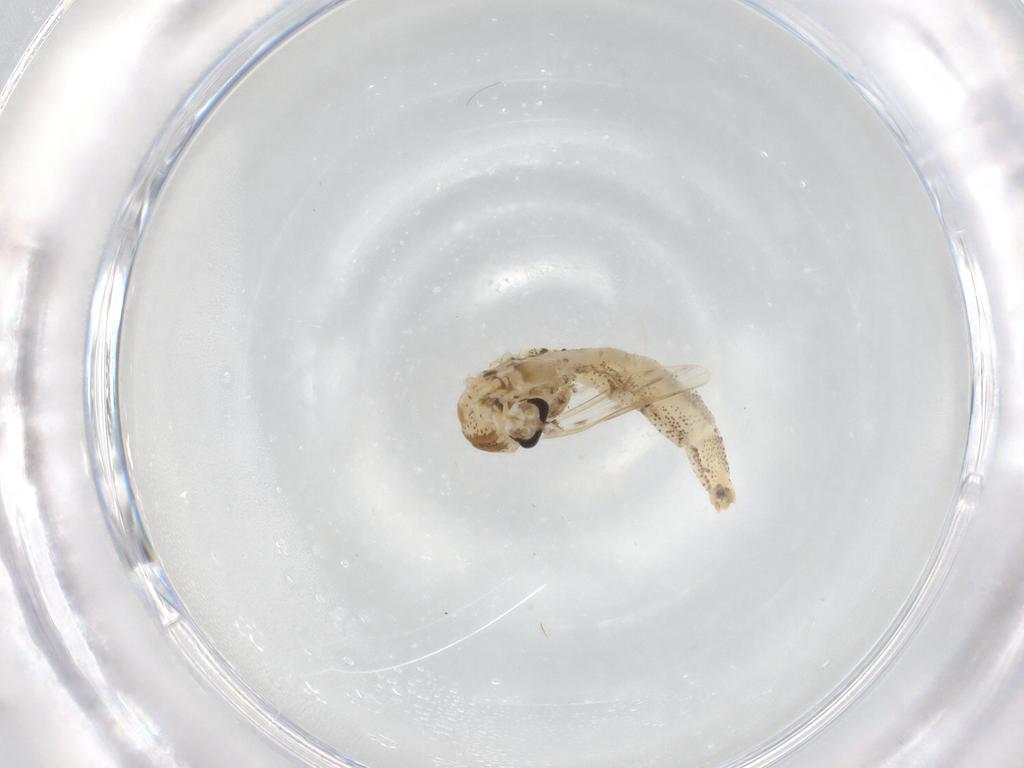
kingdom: Animalia
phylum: Arthropoda
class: Insecta
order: Diptera
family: Chaoboridae
